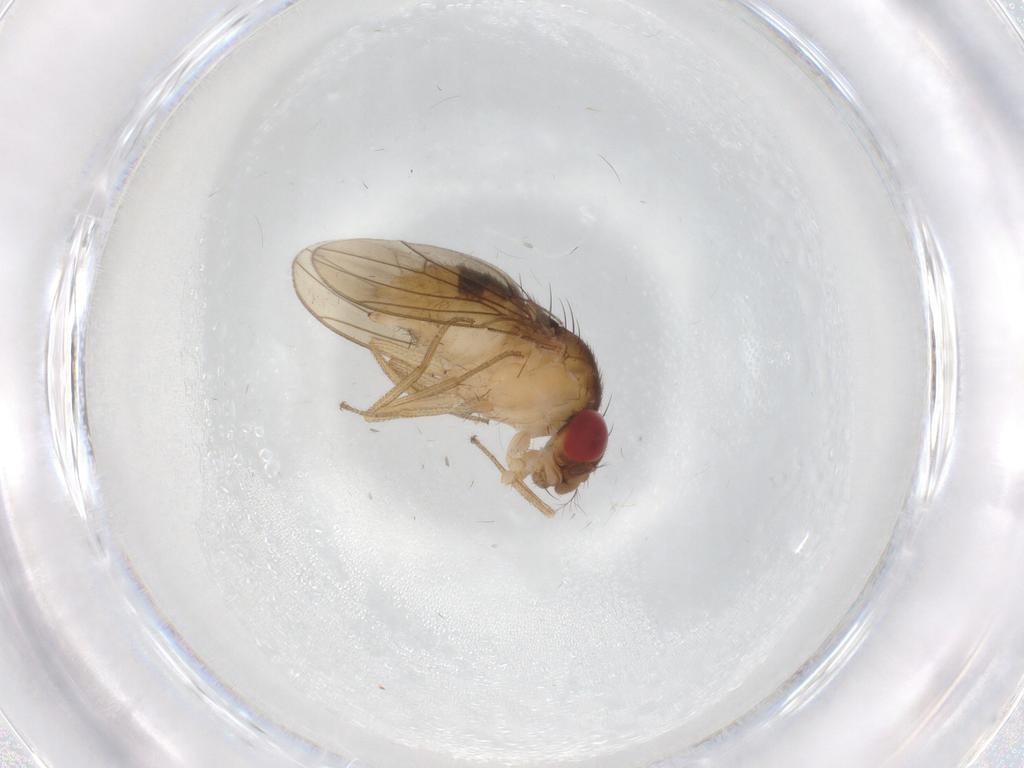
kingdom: Animalia
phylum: Arthropoda
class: Insecta
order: Diptera
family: Drosophilidae
